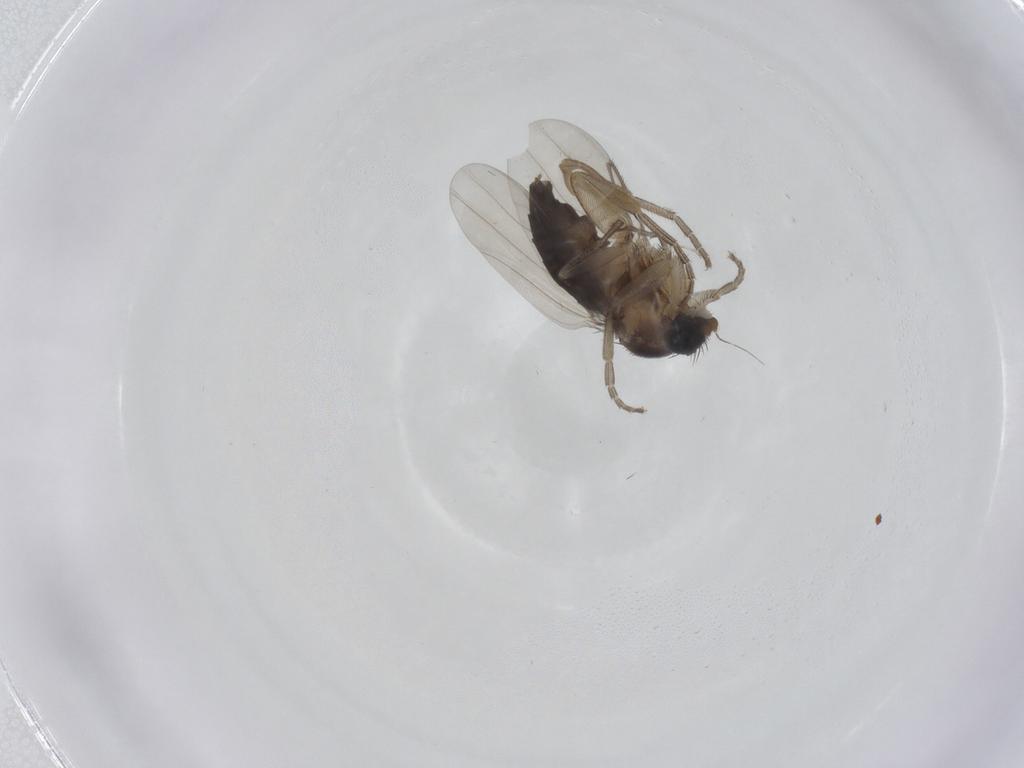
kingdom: Animalia
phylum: Arthropoda
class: Insecta
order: Diptera
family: Phoridae
